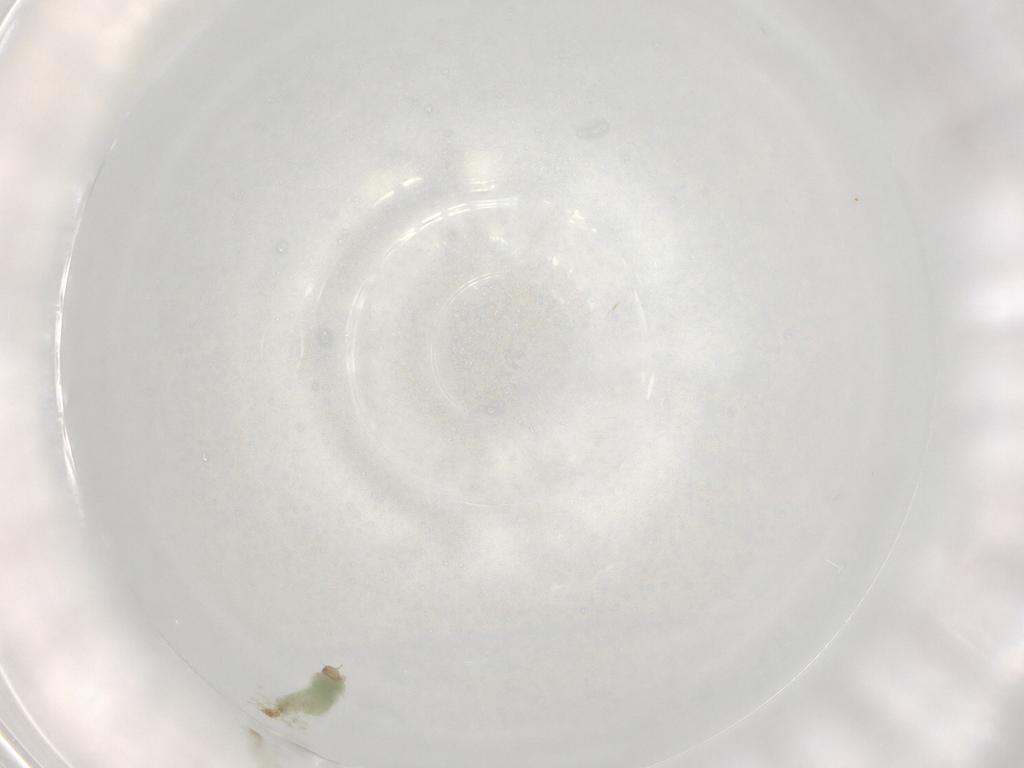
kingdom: Animalia
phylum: Arthropoda
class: Insecta
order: Diptera
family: Chironomidae
